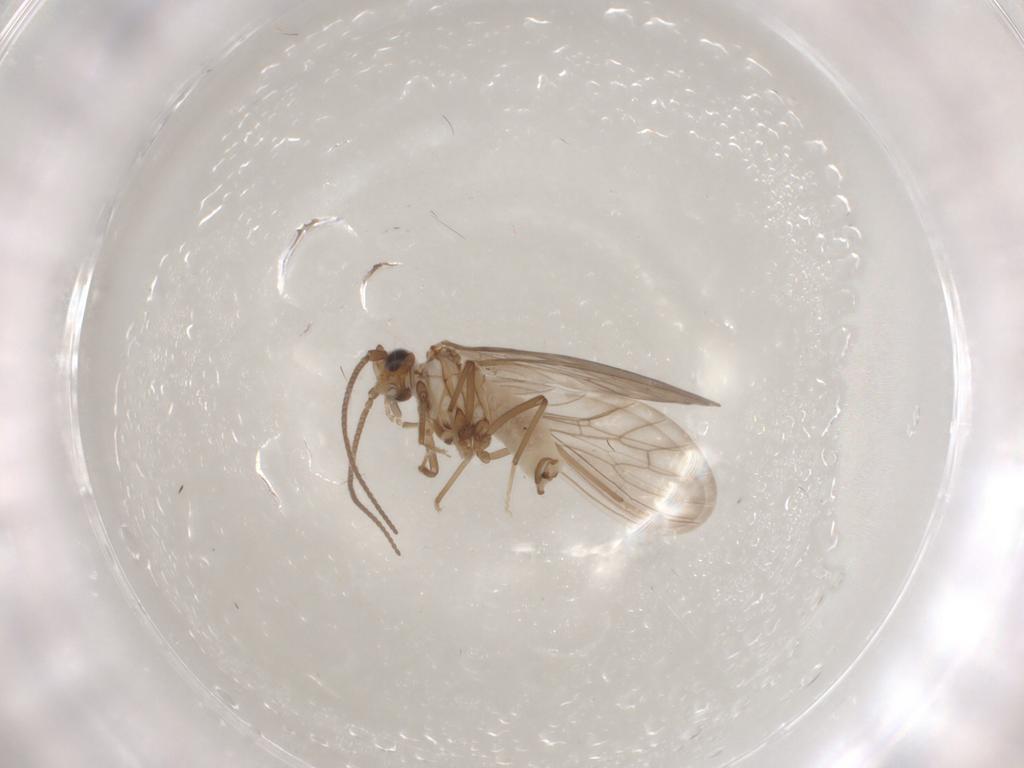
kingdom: Animalia
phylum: Arthropoda
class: Insecta
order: Neuroptera
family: Coniopterygidae
